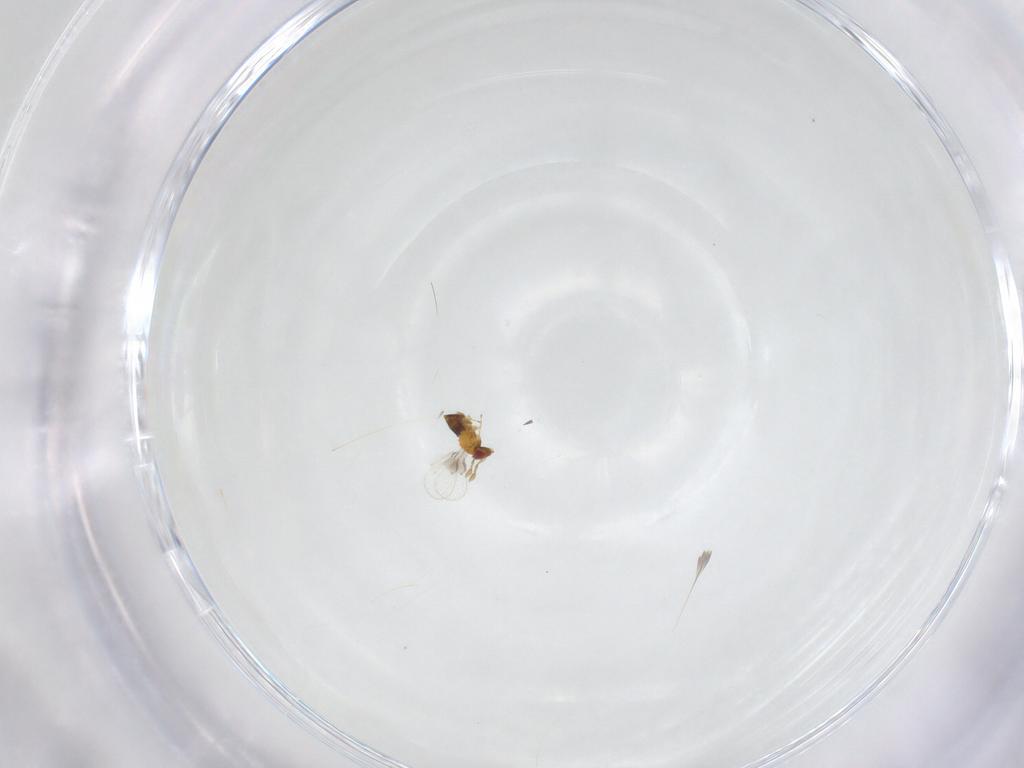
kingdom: Animalia
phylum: Arthropoda
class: Insecta
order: Hymenoptera
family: Trichogrammatidae
